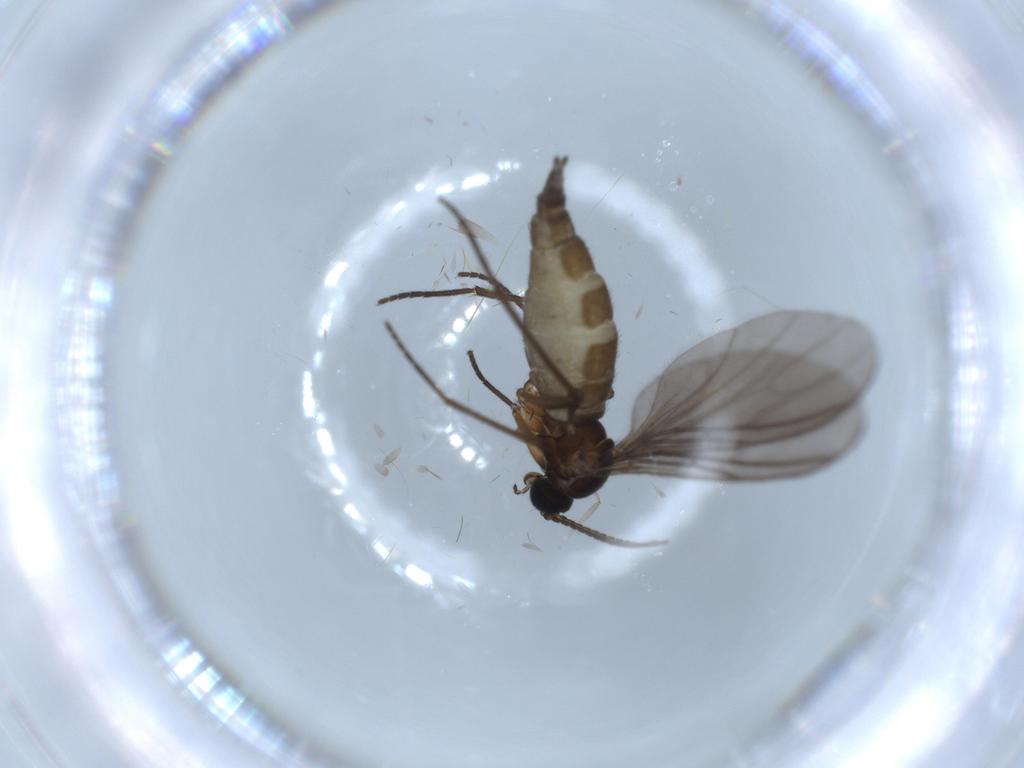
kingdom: Animalia
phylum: Arthropoda
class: Insecta
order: Diptera
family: Sciaridae
